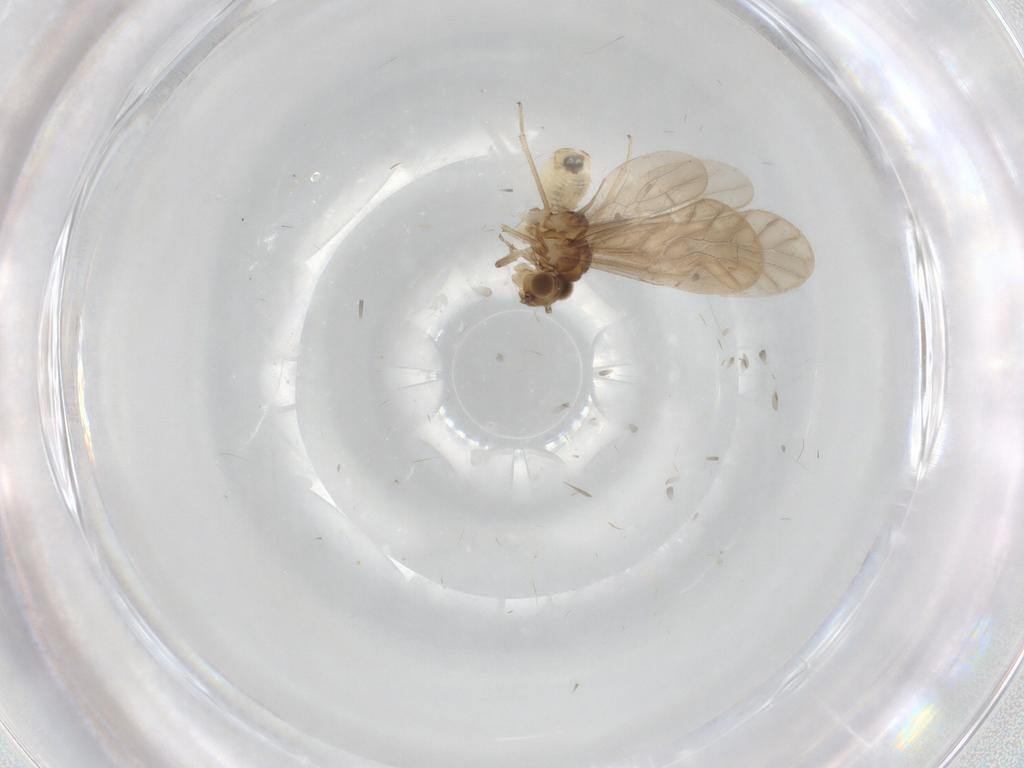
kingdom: Animalia
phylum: Arthropoda
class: Insecta
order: Psocodea
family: Caeciliusidae
